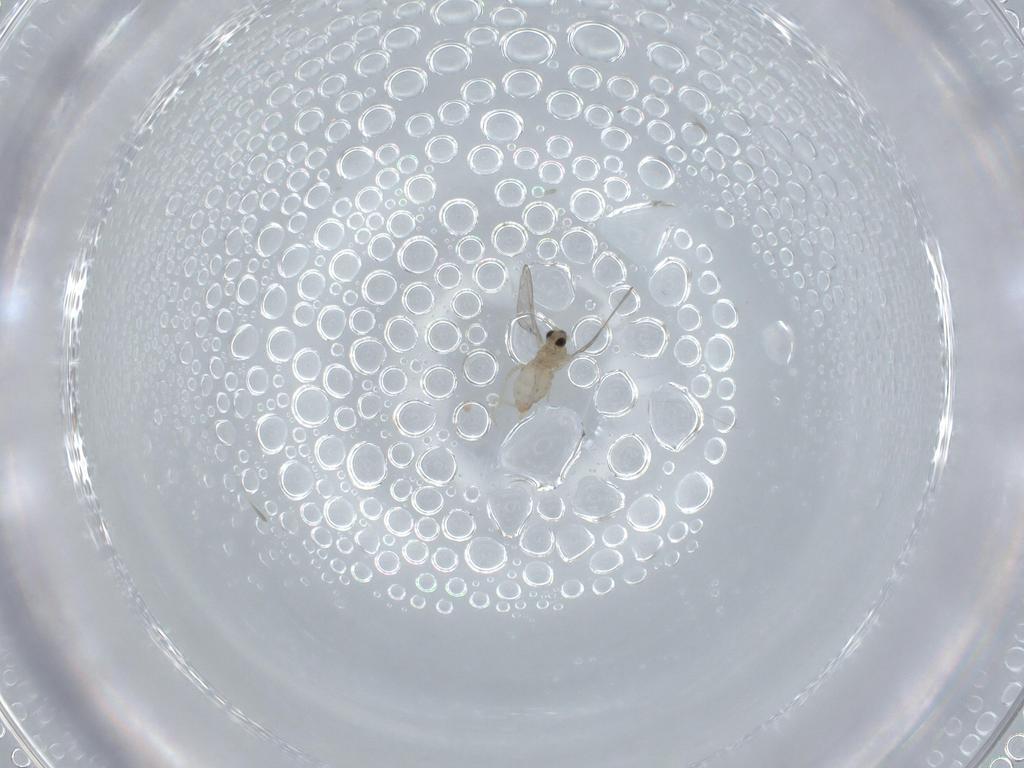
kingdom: Animalia
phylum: Arthropoda
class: Insecta
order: Diptera
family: Cecidomyiidae
